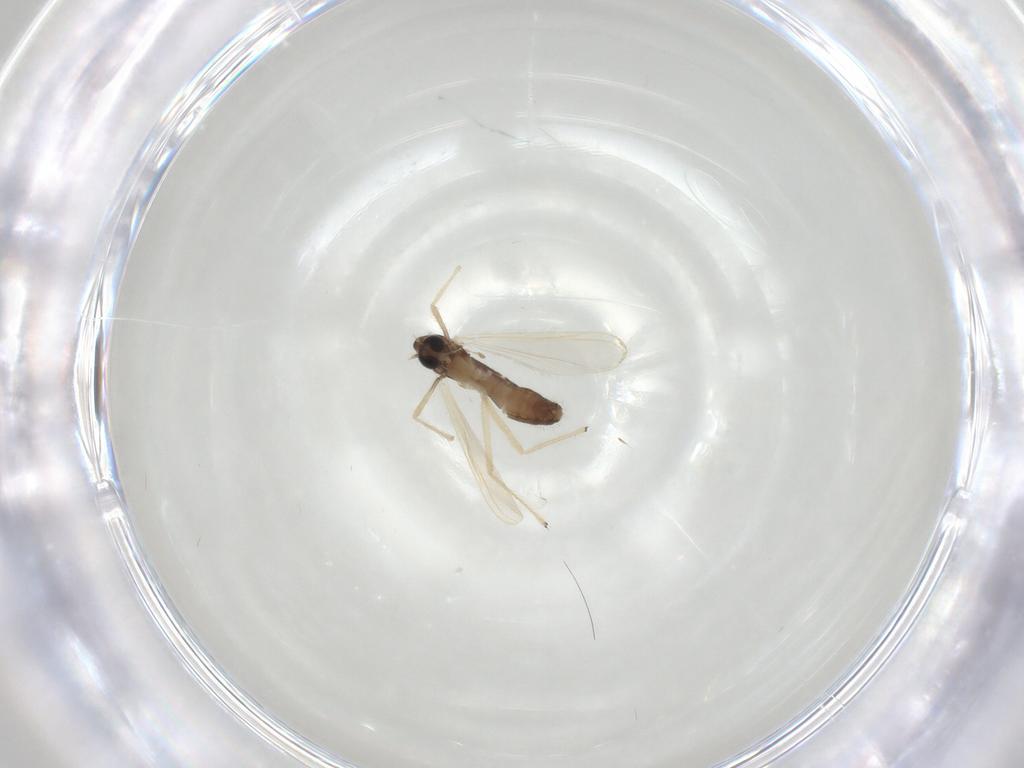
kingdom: Animalia
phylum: Arthropoda
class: Insecta
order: Diptera
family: Chironomidae
